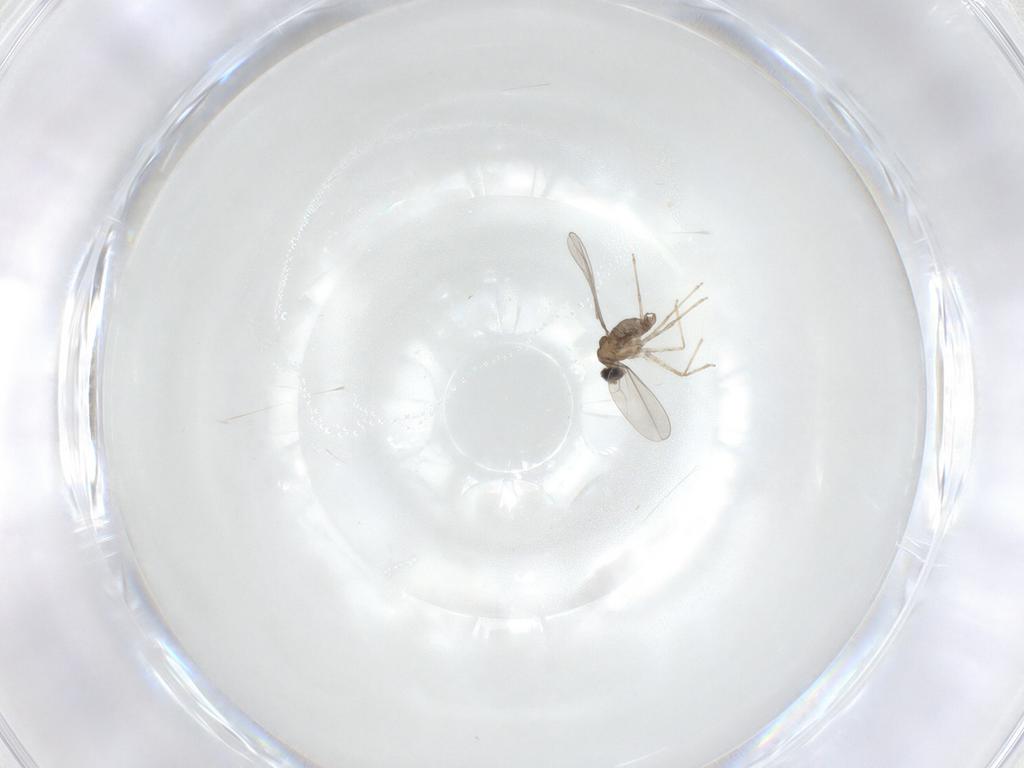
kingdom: Animalia
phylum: Arthropoda
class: Insecta
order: Diptera
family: Cecidomyiidae
